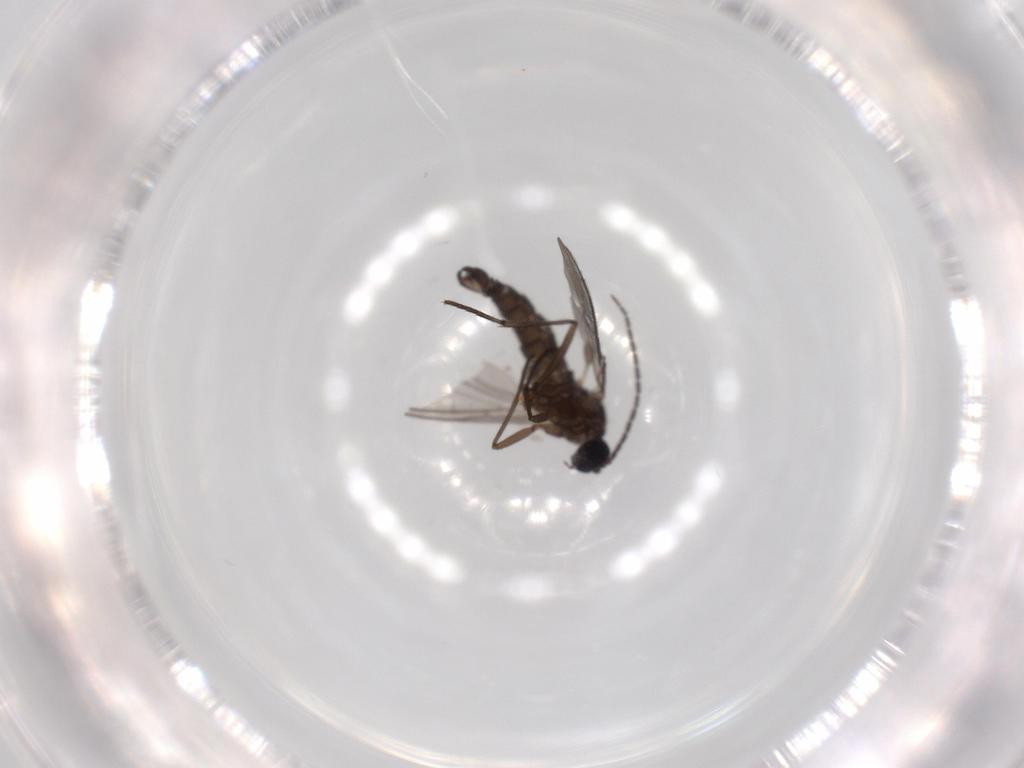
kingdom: Animalia
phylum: Arthropoda
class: Insecta
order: Diptera
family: Sciaridae
